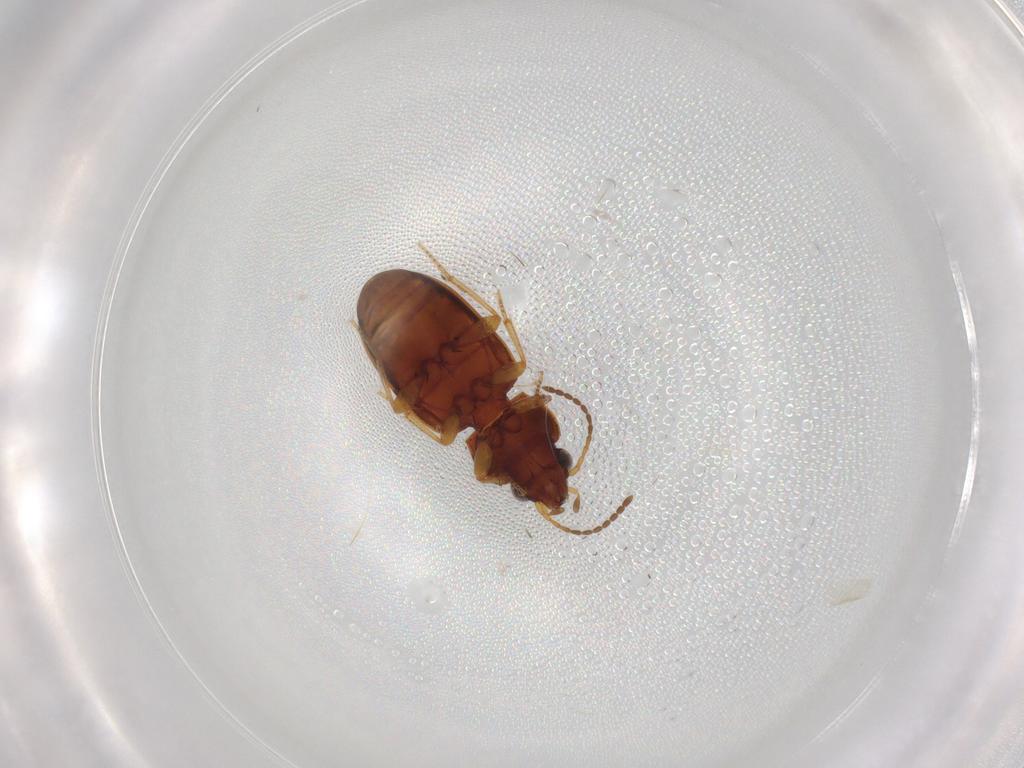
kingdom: Animalia
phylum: Arthropoda
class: Insecta
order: Coleoptera
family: Carabidae
